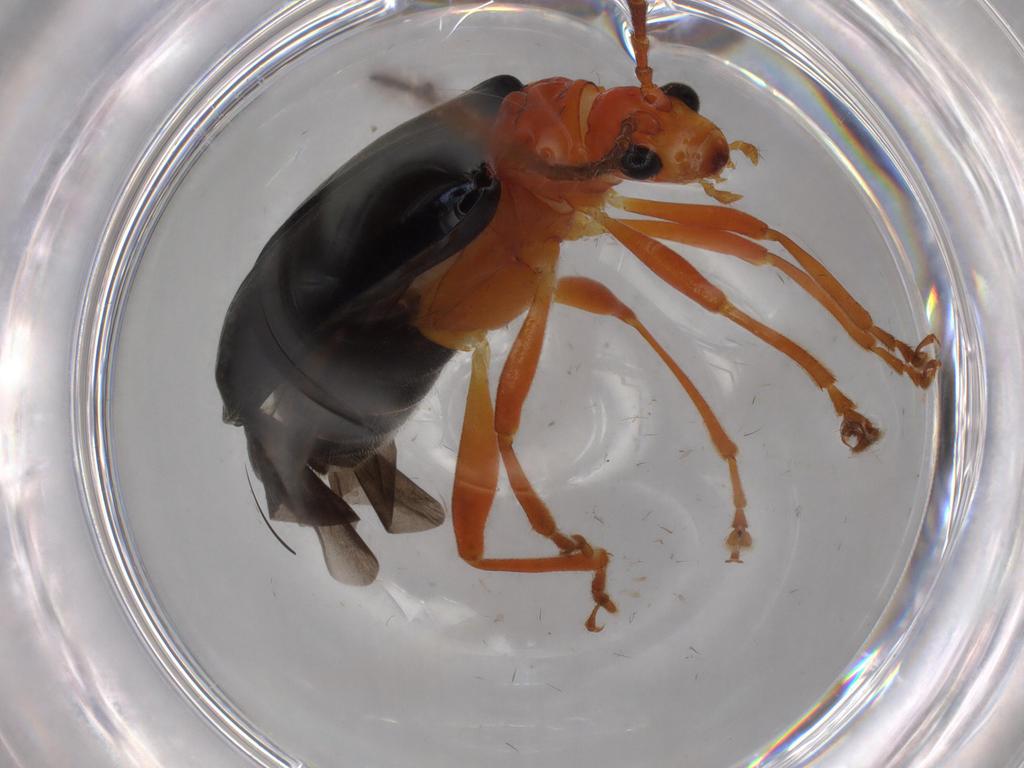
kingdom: Animalia
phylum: Arthropoda
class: Insecta
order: Coleoptera
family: Chrysomelidae
